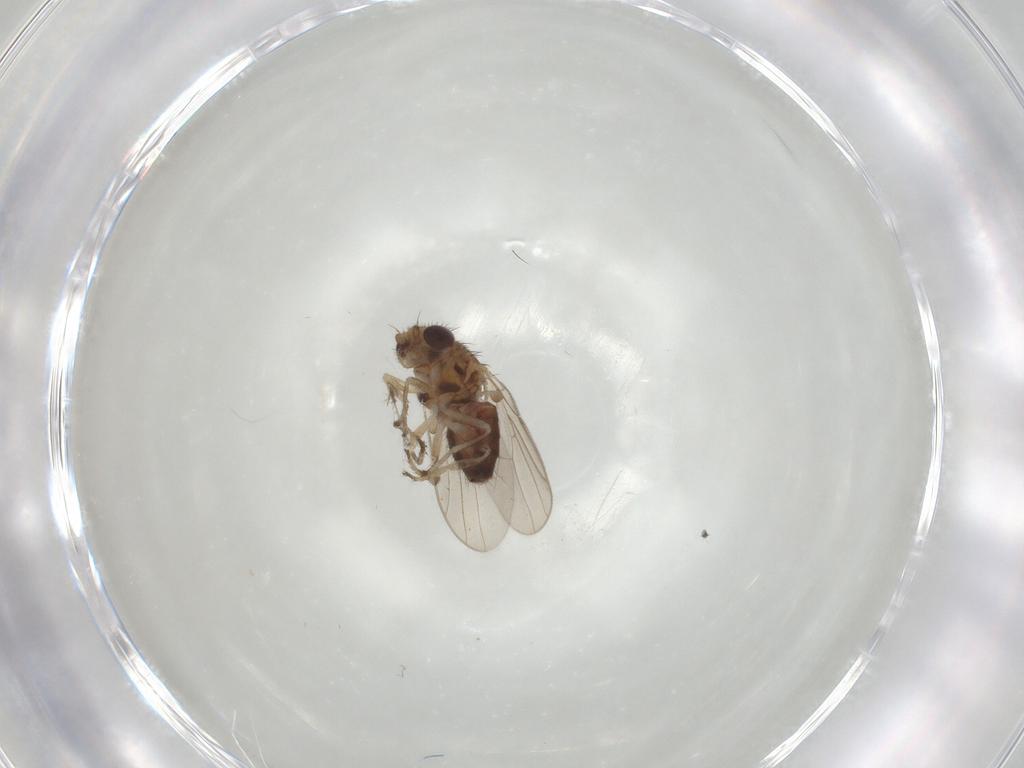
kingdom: Animalia
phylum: Arthropoda
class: Insecta
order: Diptera
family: Chloropidae
